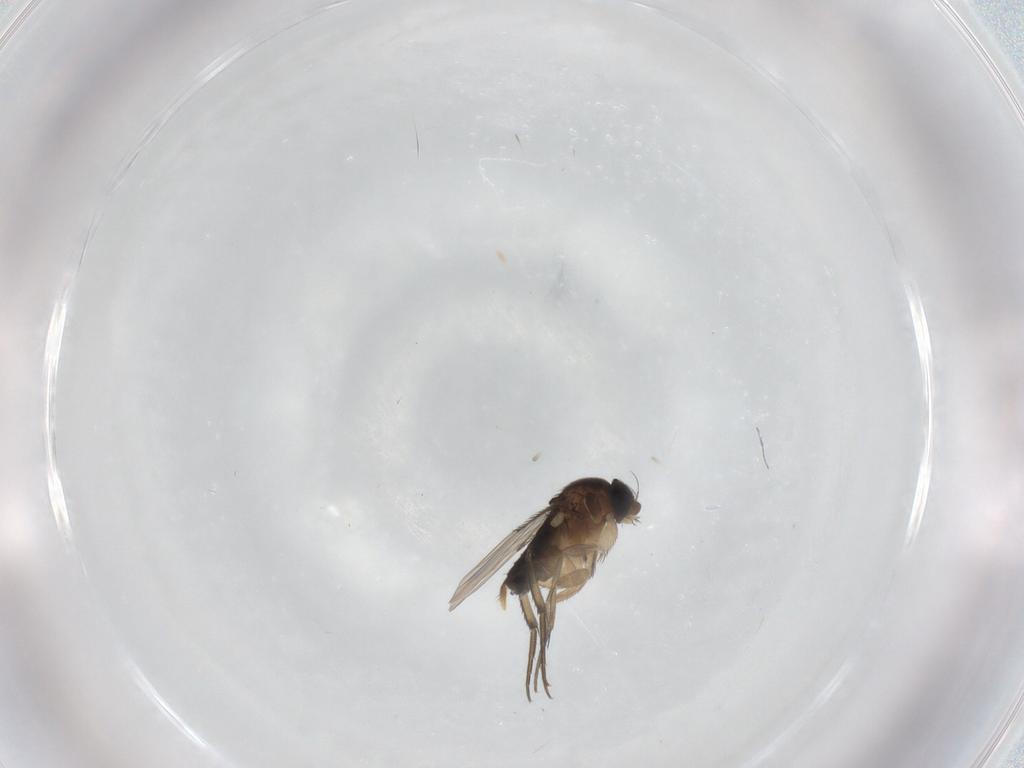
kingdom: Animalia
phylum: Arthropoda
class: Insecta
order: Diptera
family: Phoridae
